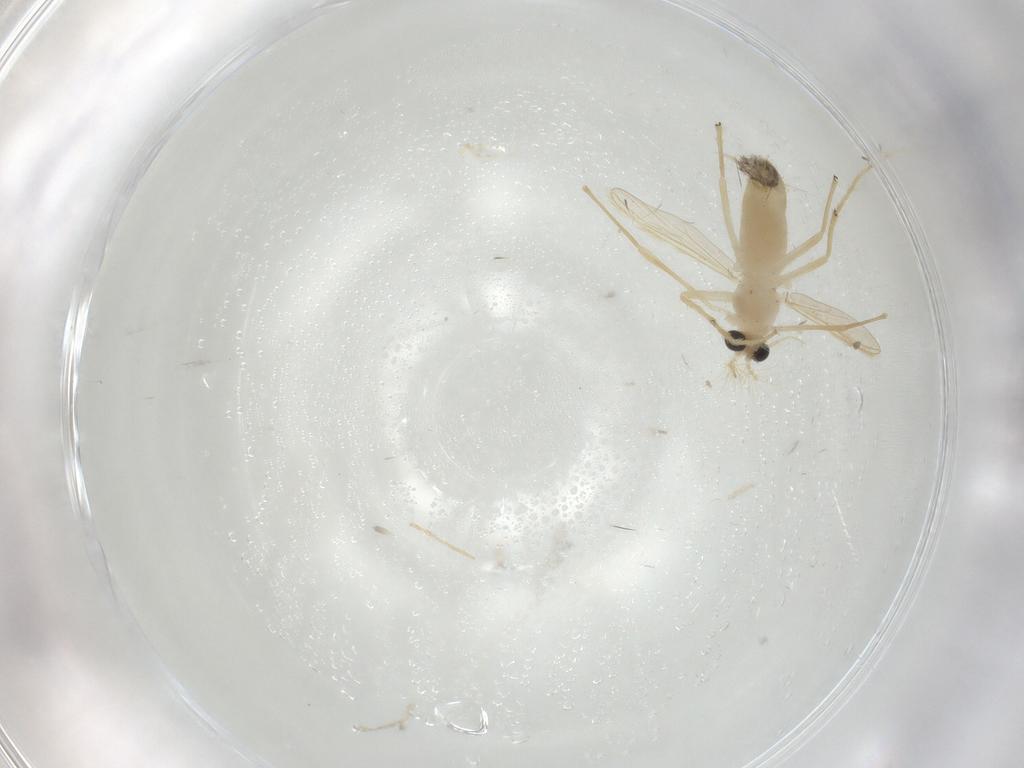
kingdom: Animalia
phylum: Arthropoda
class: Insecta
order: Diptera
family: Chironomidae
